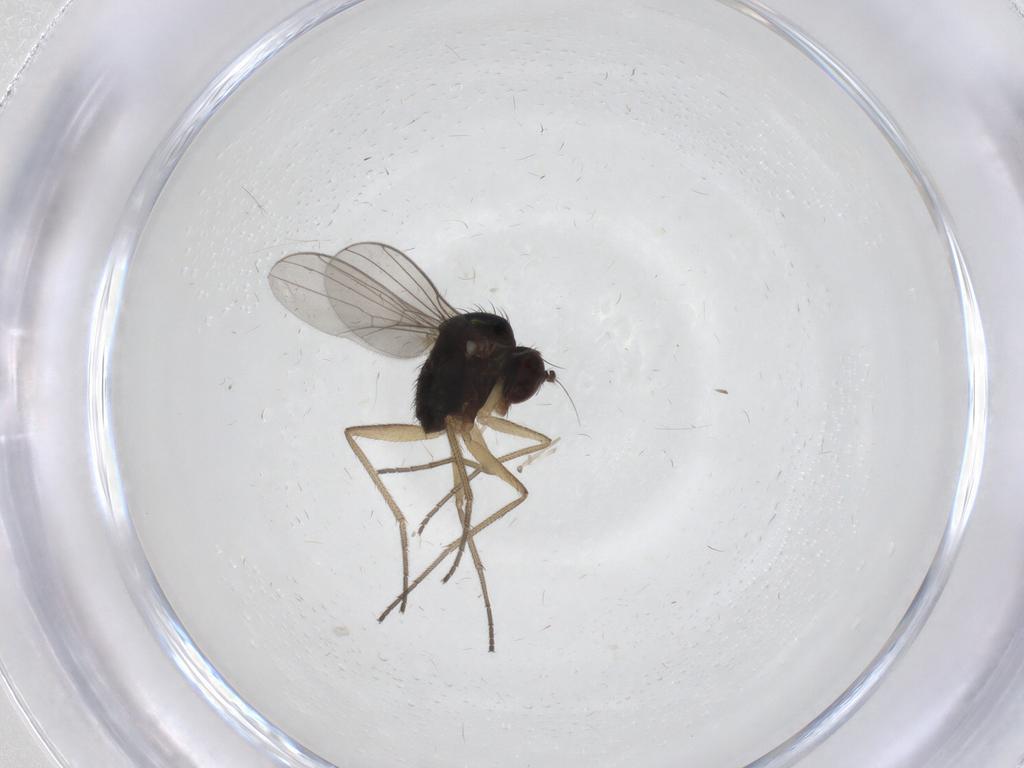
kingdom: Animalia
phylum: Arthropoda
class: Insecta
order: Diptera
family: Dolichopodidae
